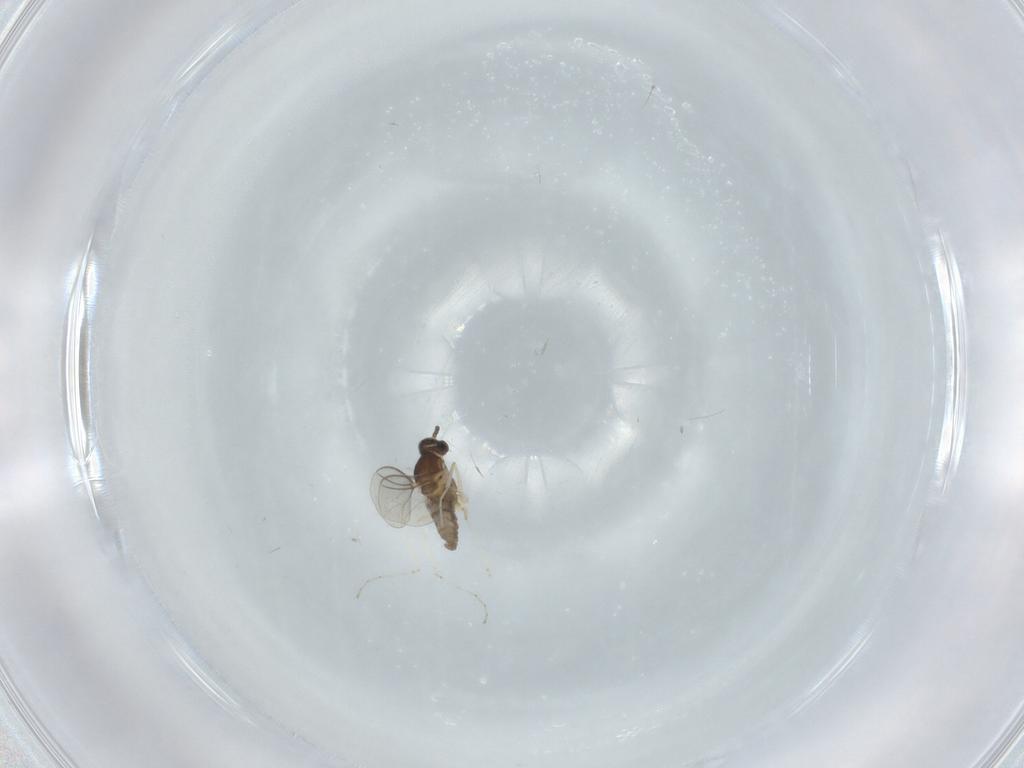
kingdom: Animalia
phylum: Arthropoda
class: Insecta
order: Diptera
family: Cecidomyiidae
